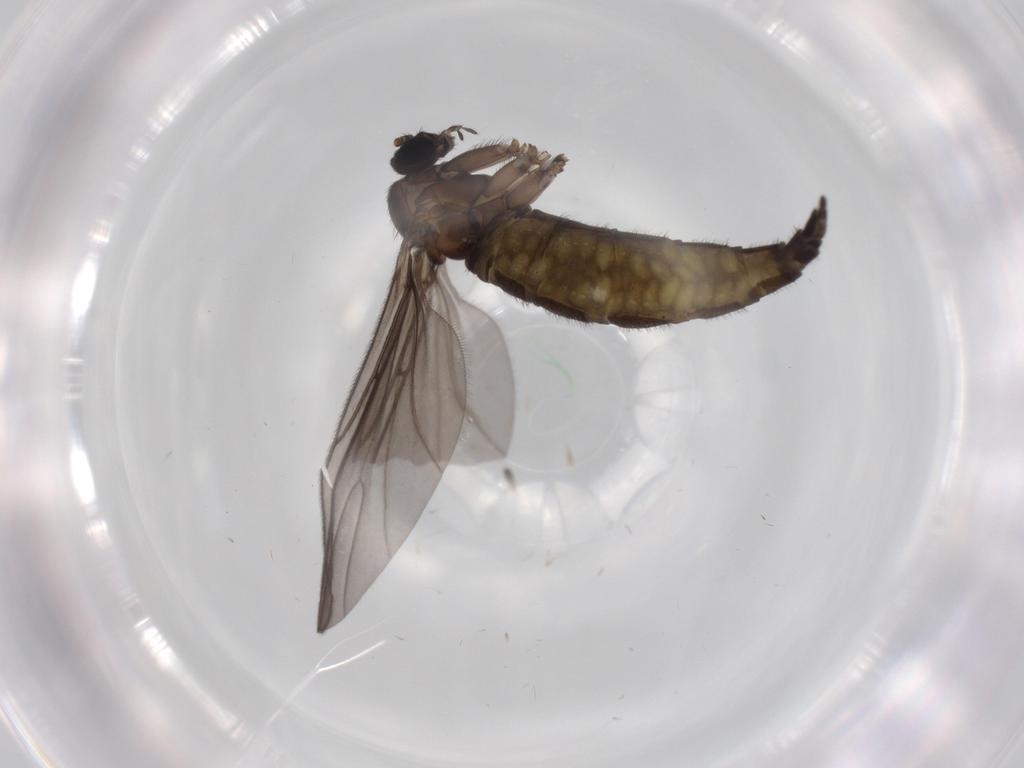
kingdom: Animalia
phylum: Arthropoda
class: Insecta
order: Diptera
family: Sciaridae
